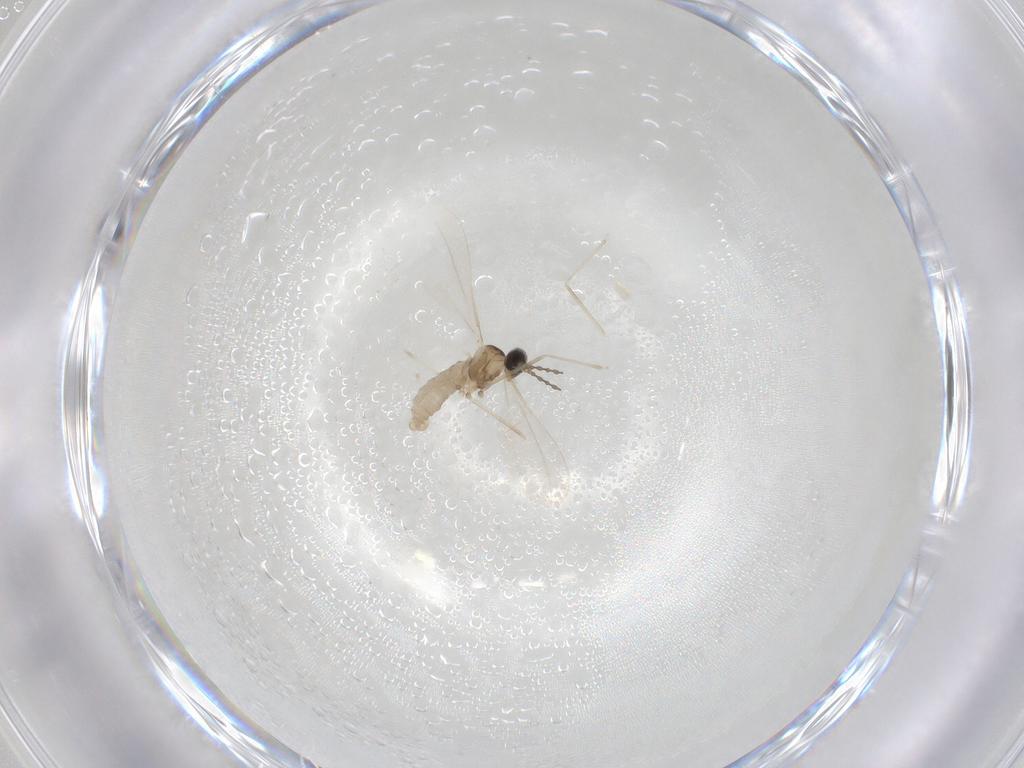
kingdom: Animalia
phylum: Arthropoda
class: Insecta
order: Diptera
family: Cecidomyiidae
